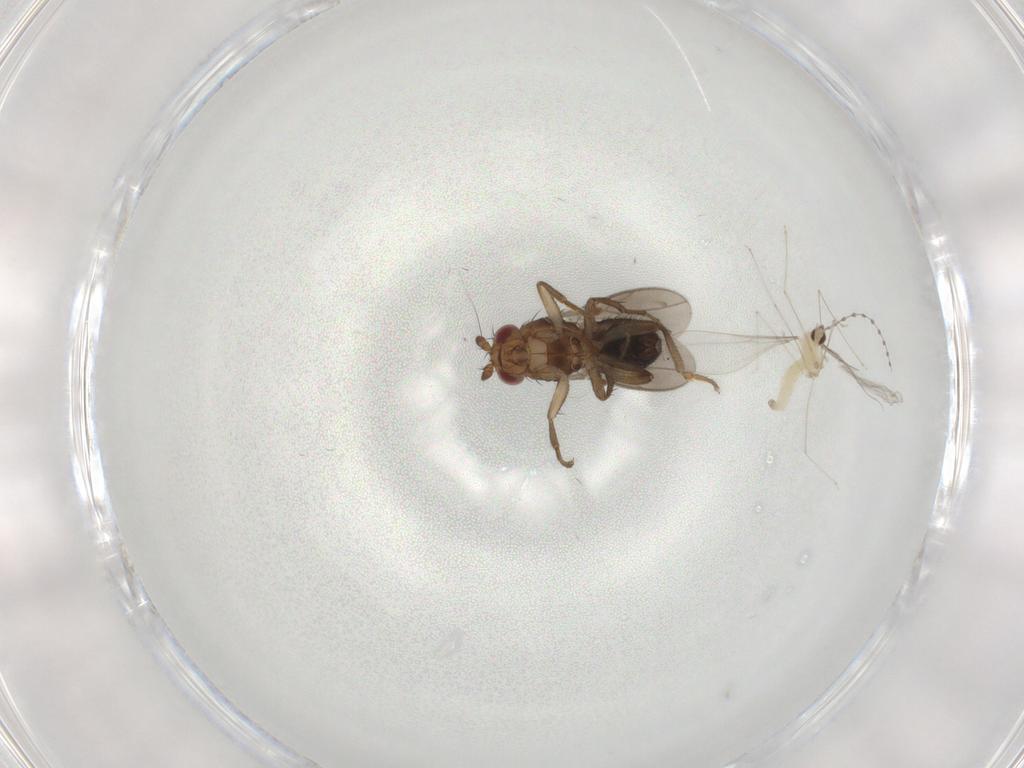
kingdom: Animalia
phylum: Arthropoda
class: Insecta
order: Diptera
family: Sphaeroceridae
